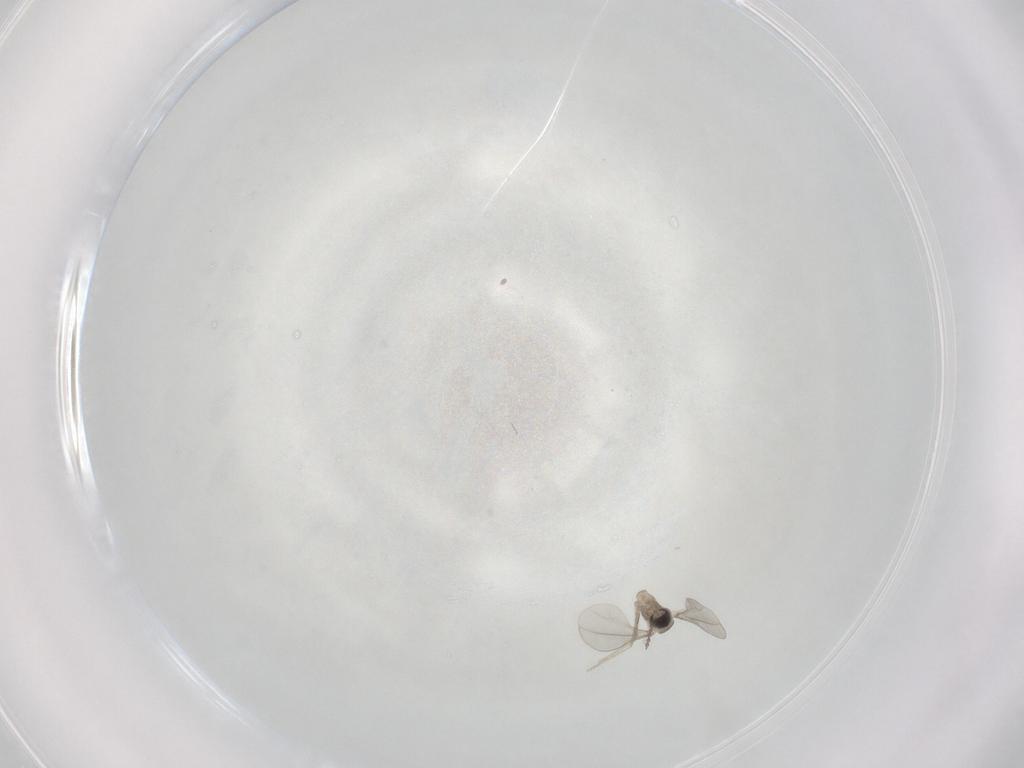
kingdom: Animalia
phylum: Arthropoda
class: Insecta
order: Diptera
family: Cecidomyiidae
